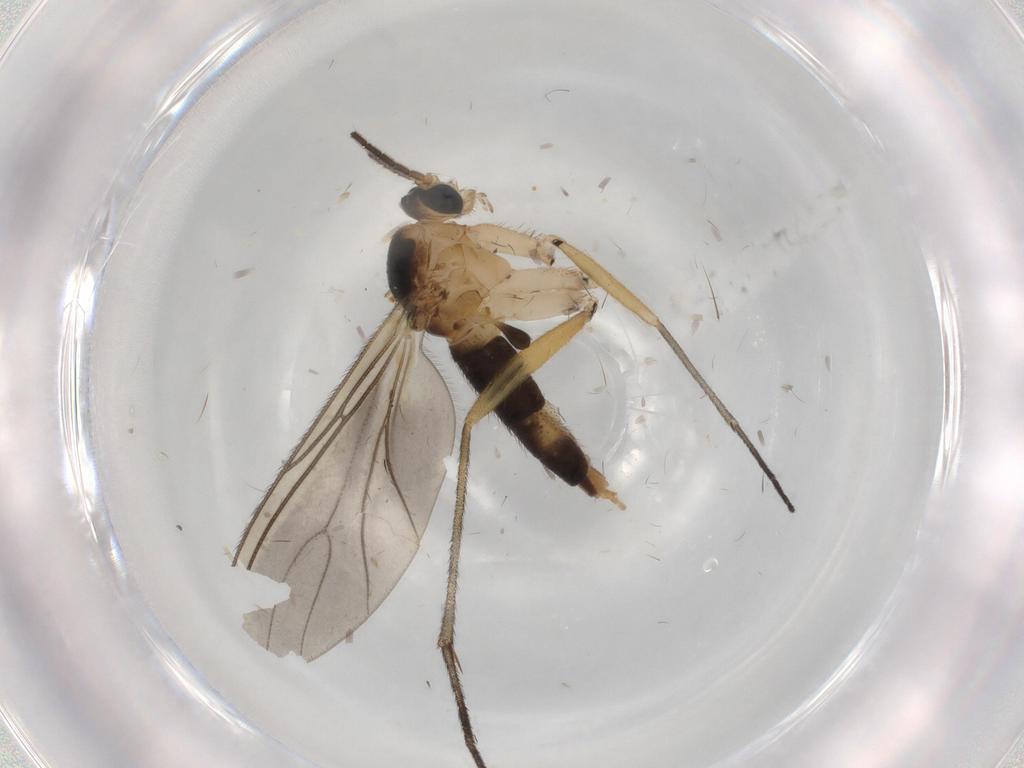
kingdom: Animalia
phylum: Arthropoda
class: Insecta
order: Diptera
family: Sciaridae
